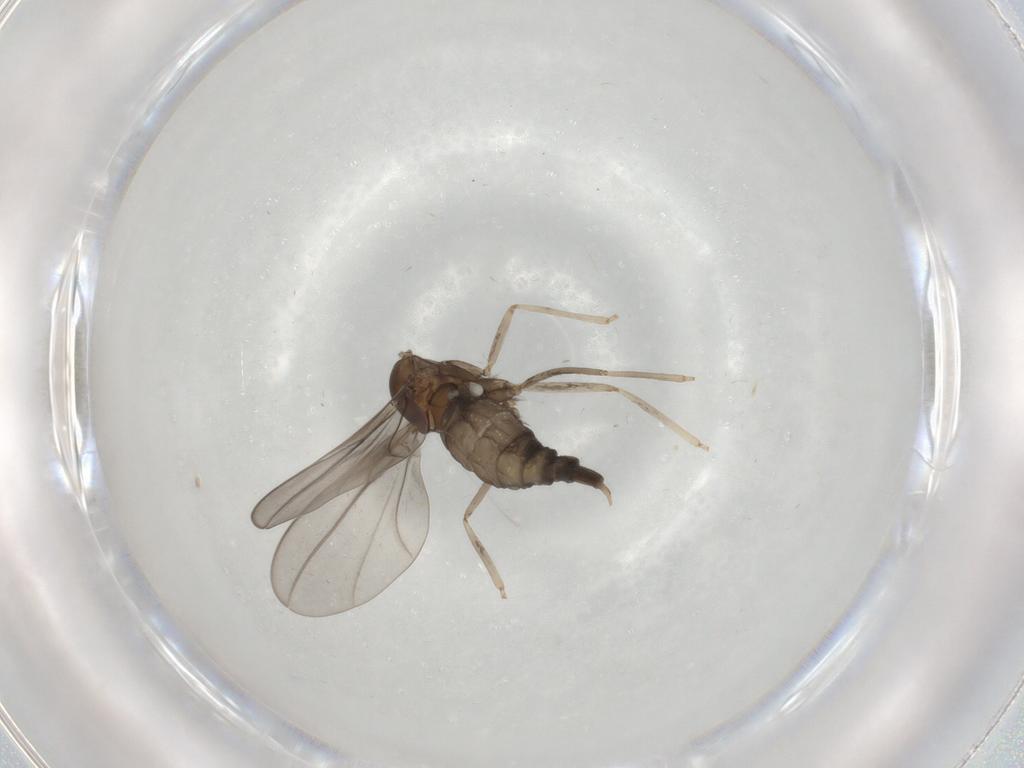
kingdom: Animalia
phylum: Arthropoda
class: Insecta
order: Diptera
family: Cecidomyiidae
